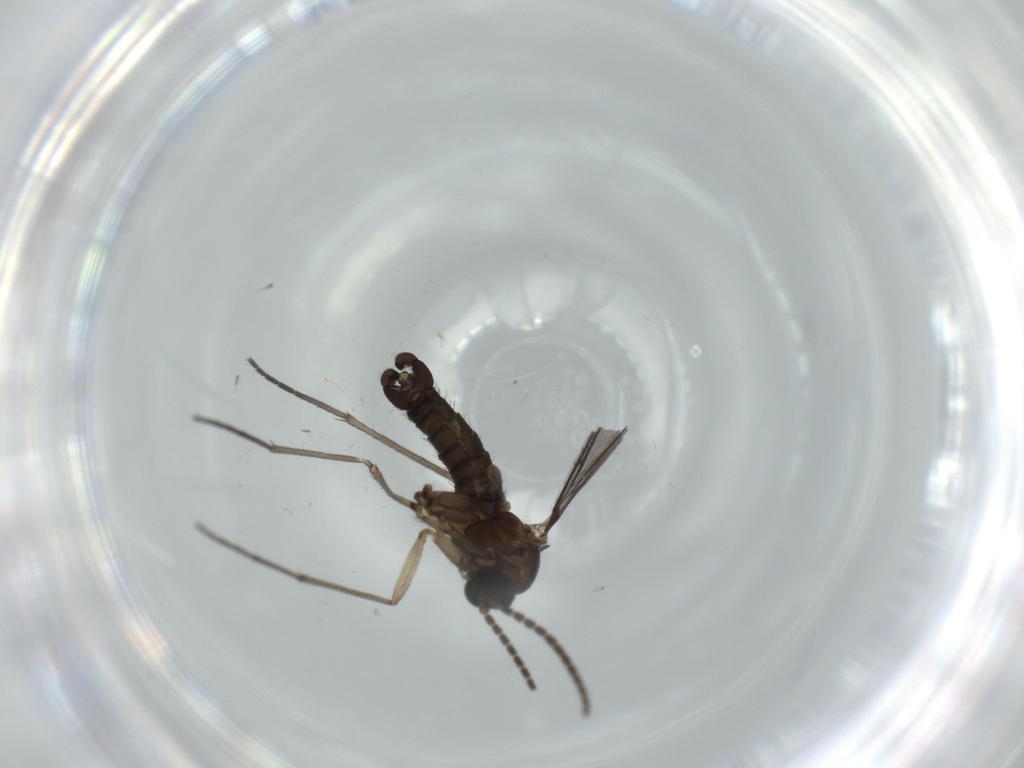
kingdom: Animalia
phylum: Arthropoda
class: Insecta
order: Diptera
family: Sciaridae
